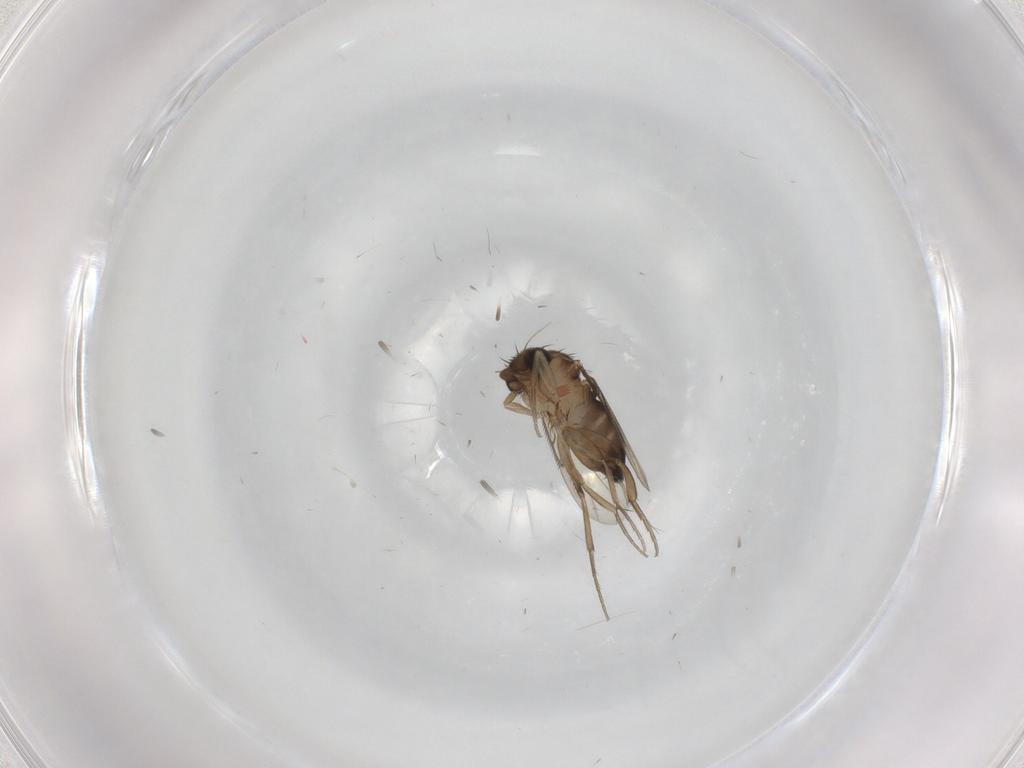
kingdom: Animalia
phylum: Arthropoda
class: Insecta
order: Diptera
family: Phoridae
